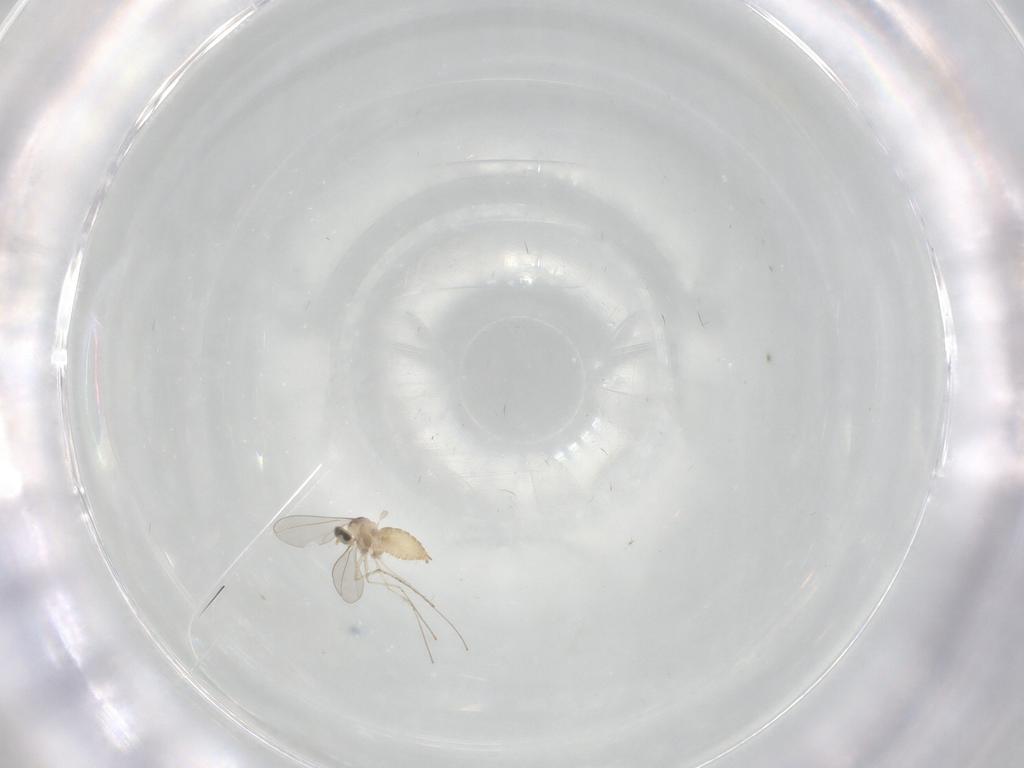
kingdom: Animalia
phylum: Arthropoda
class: Insecta
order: Diptera
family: Cecidomyiidae
